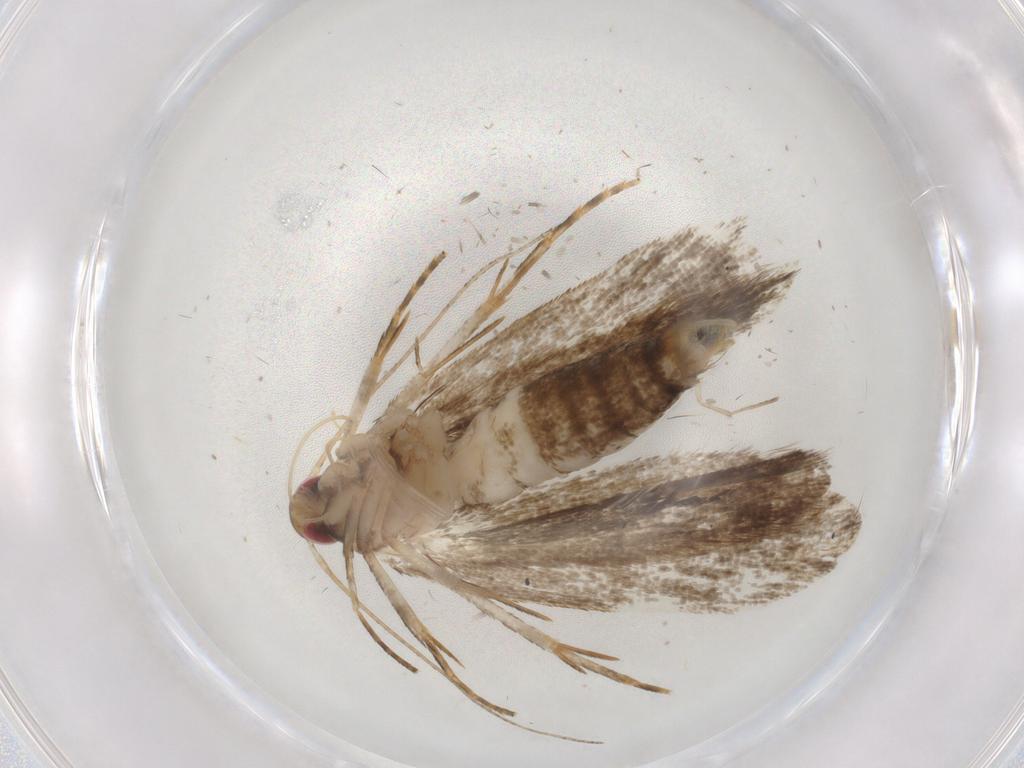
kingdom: Animalia
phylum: Arthropoda
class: Insecta
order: Lepidoptera
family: Gelechiidae
